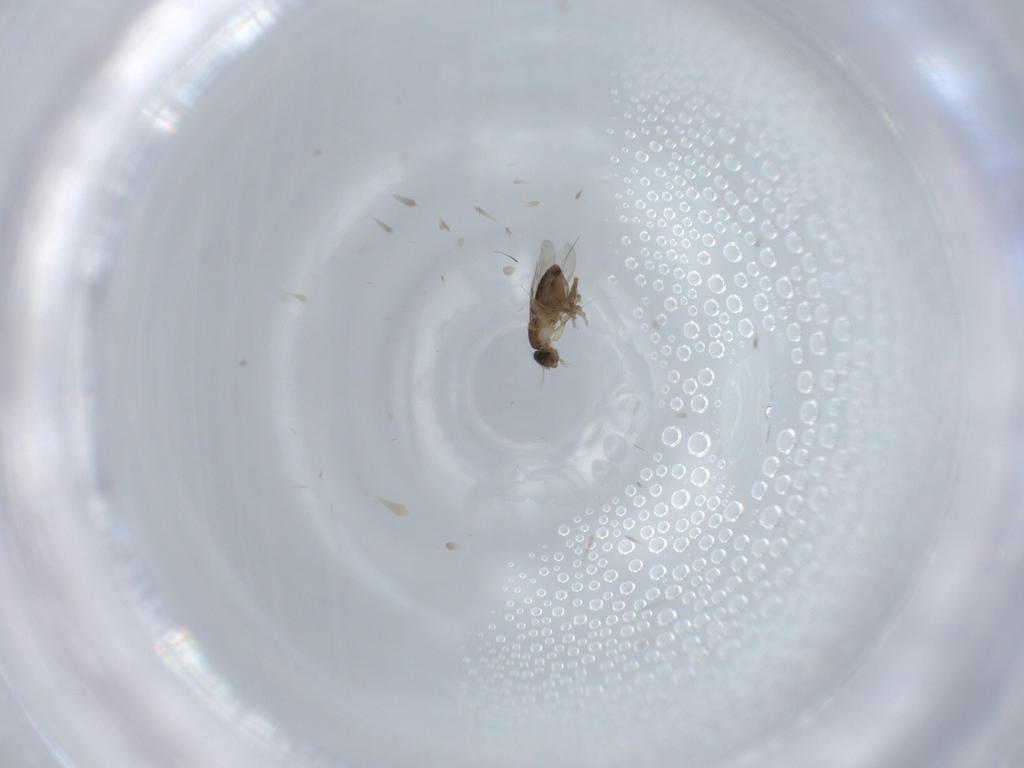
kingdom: Animalia
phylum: Arthropoda
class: Insecta
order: Diptera
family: Phoridae
